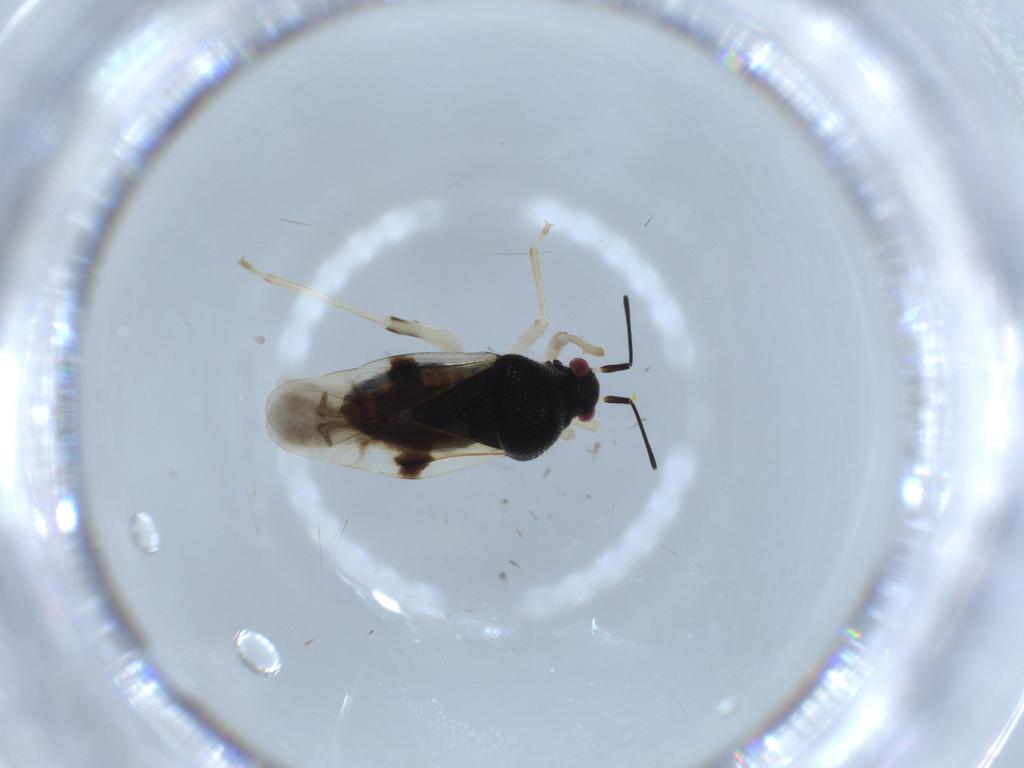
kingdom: Animalia
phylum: Arthropoda
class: Insecta
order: Hemiptera
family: Miridae
